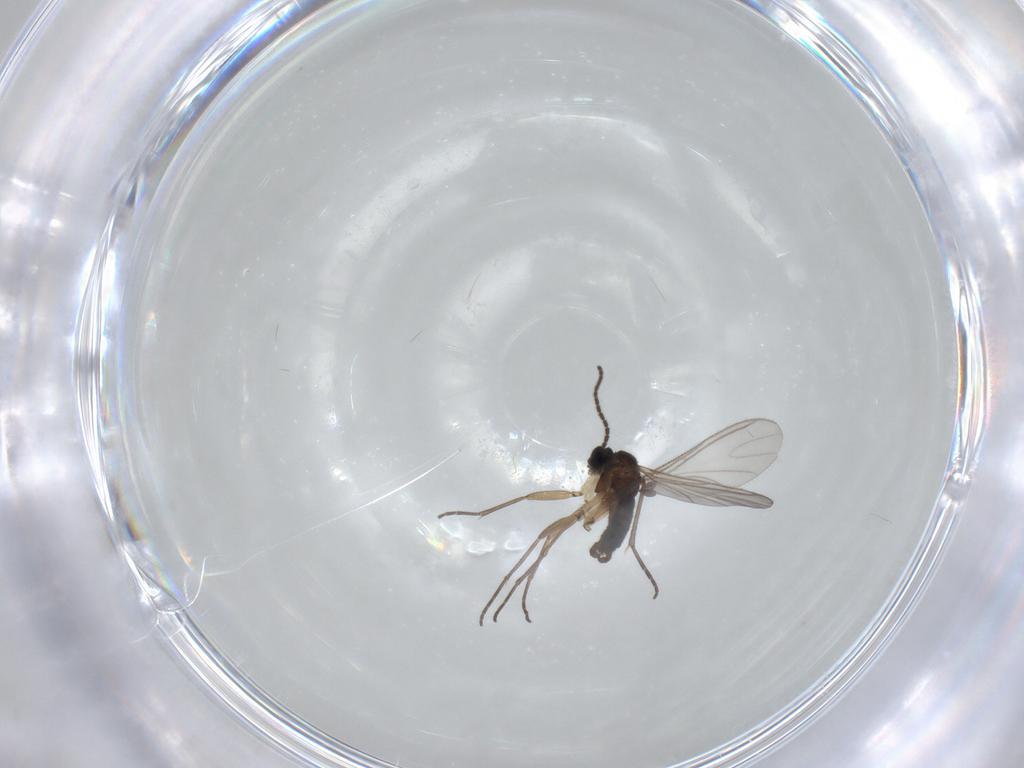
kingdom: Animalia
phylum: Arthropoda
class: Insecta
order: Diptera
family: Sciaridae
